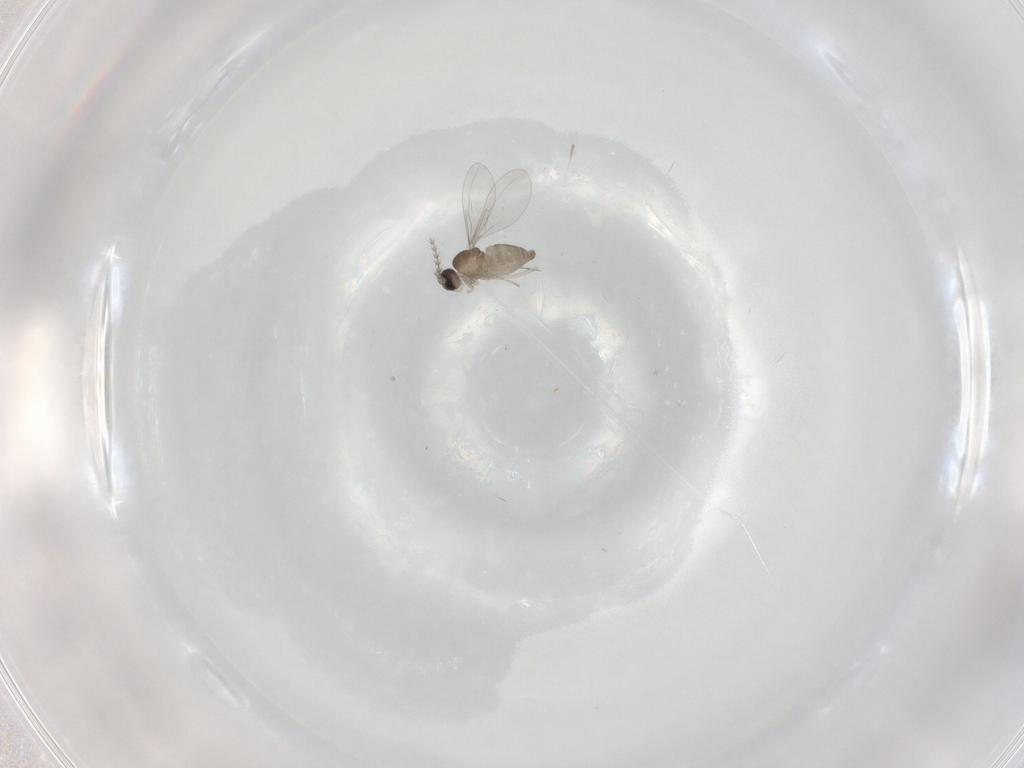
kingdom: Animalia
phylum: Arthropoda
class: Insecta
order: Diptera
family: Cecidomyiidae
